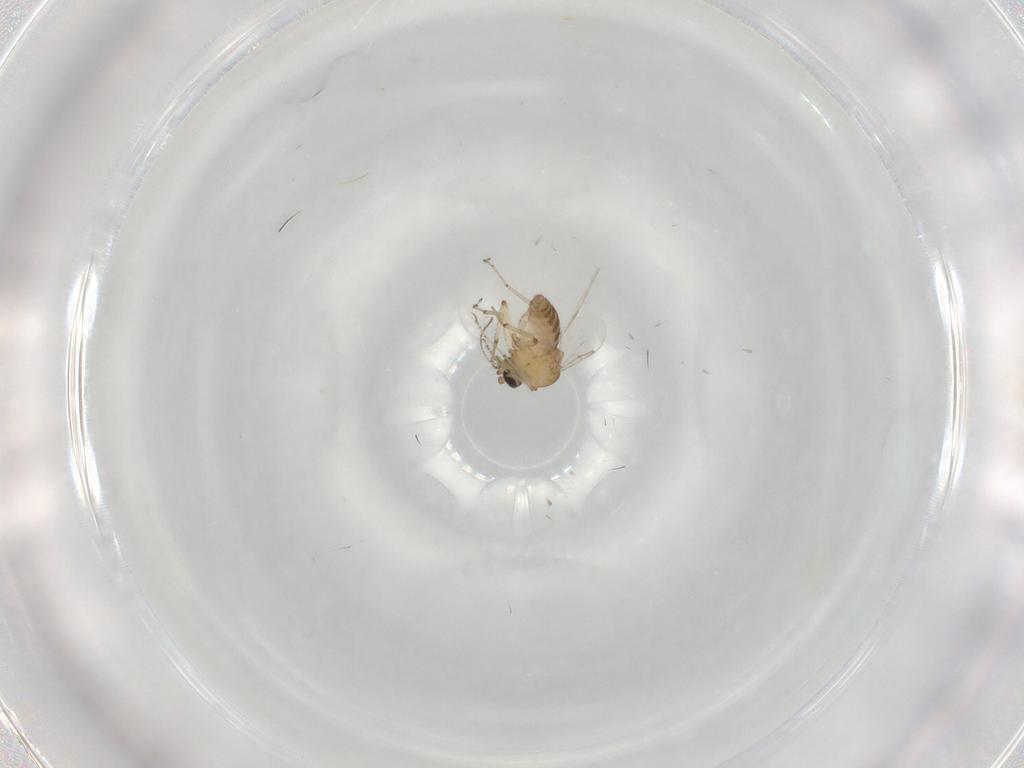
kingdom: Animalia
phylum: Arthropoda
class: Insecta
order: Diptera
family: Ceratopogonidae
